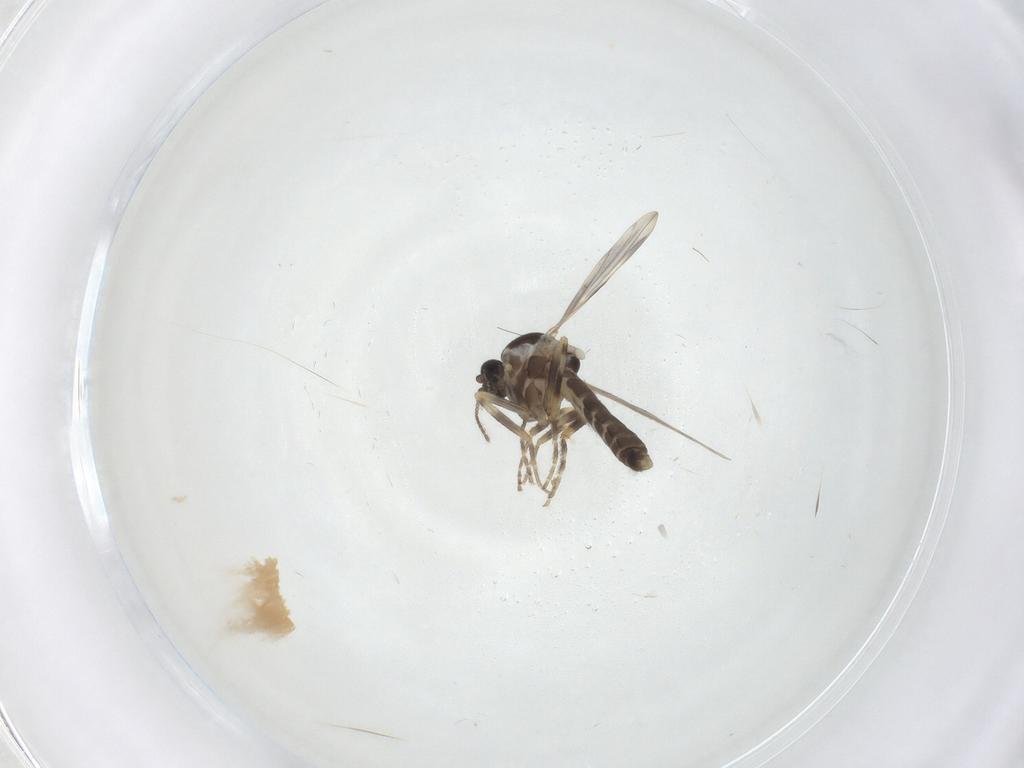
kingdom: Animalia
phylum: Arthropoda
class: Insecta
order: Diptera
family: Ceratopogonidae
